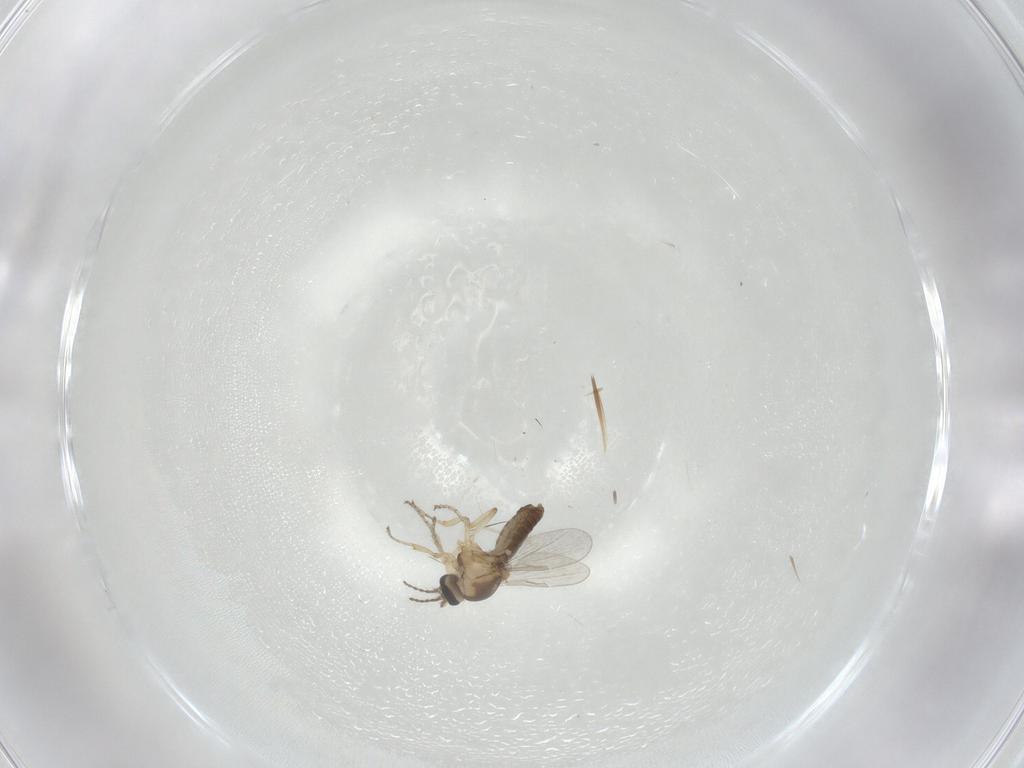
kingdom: Animalia
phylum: Arthropoda
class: Insecta
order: Diptera
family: Ceratopogonidae
